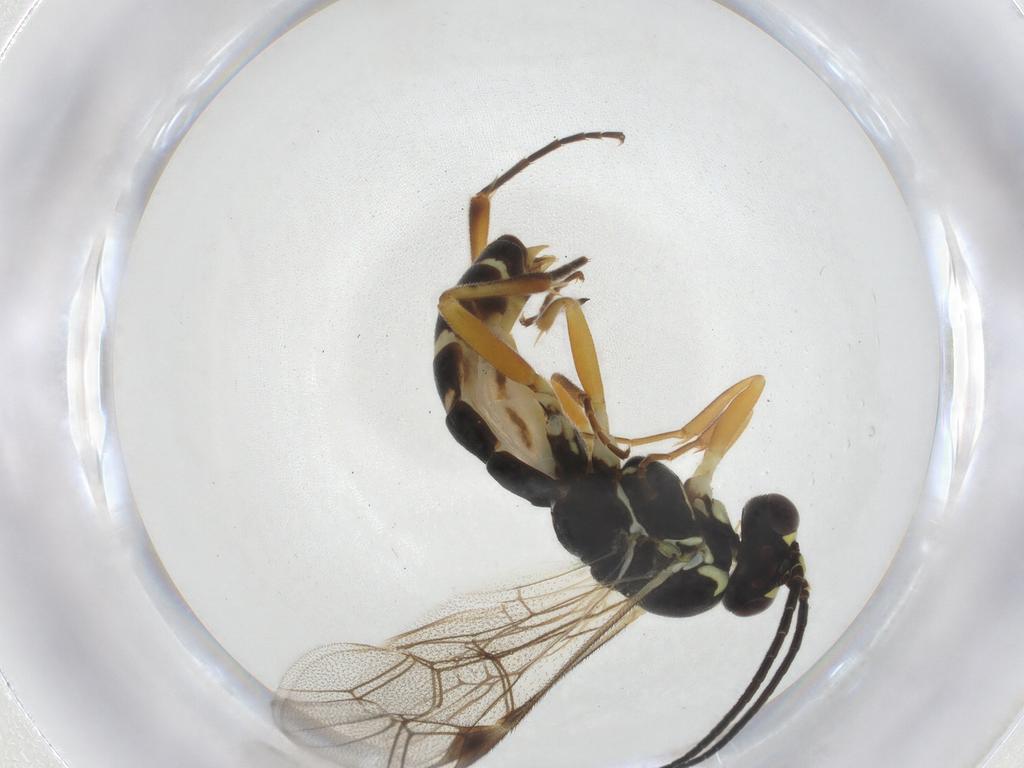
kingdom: Animalia
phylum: Arthropoda
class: Insecta
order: Hymenoptera
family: Ichneumonidae
